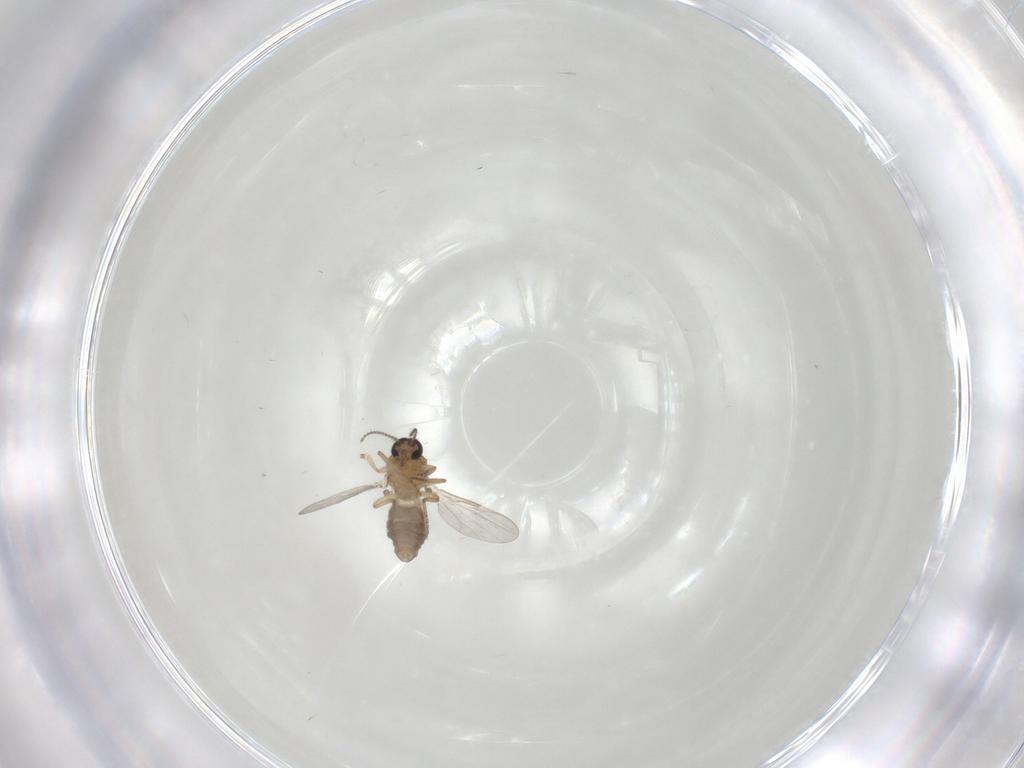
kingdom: Animalia
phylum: Arthropoda
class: Insecta
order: Diptera
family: Ceratopogonidae
